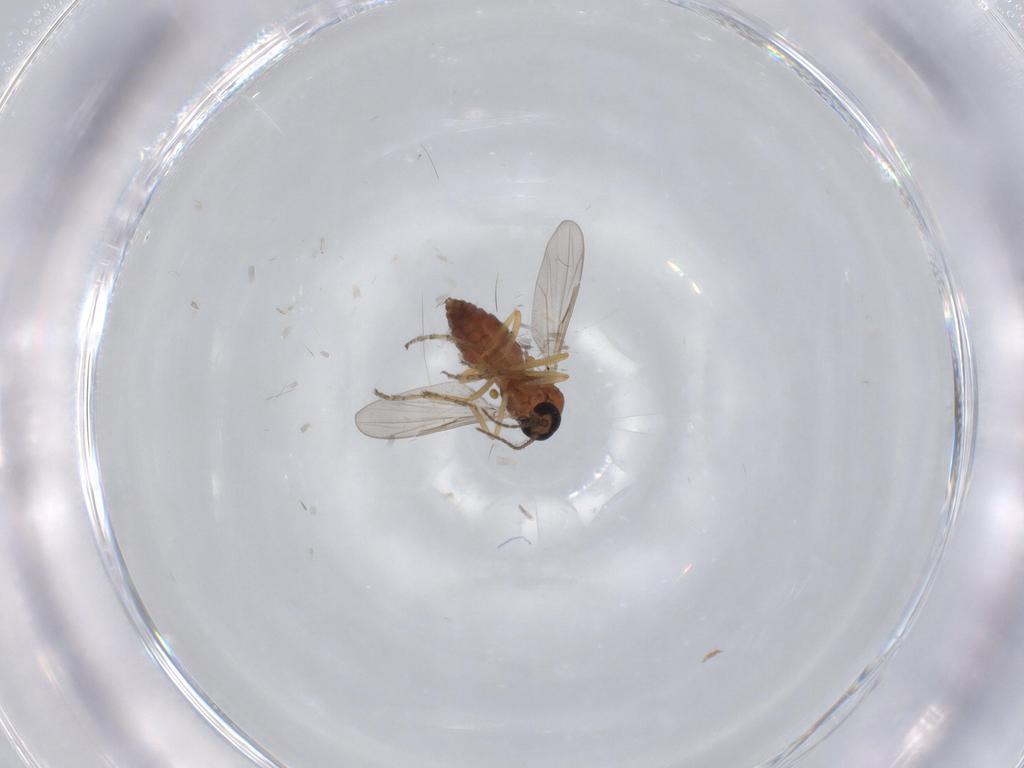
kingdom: Animalia
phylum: Arthropoda
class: Insecta
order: Diptera
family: Ceratopogonidae
